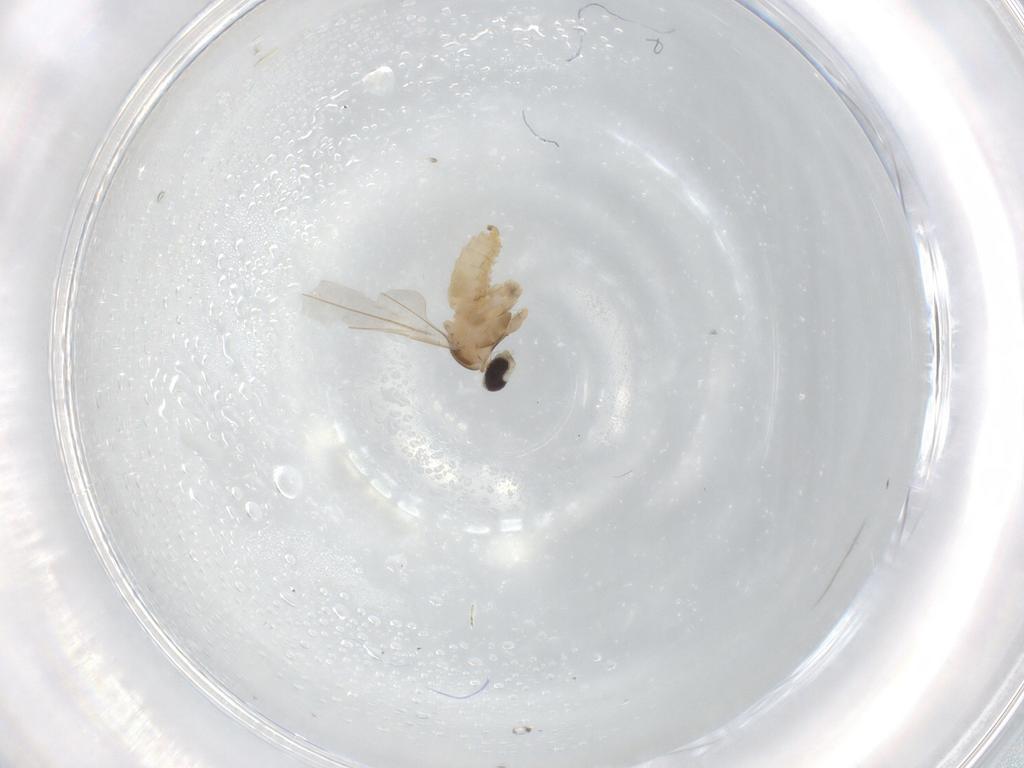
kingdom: Animalia
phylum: Arthropoda
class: Insecta
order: Diptera
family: Cecidomyiidae
